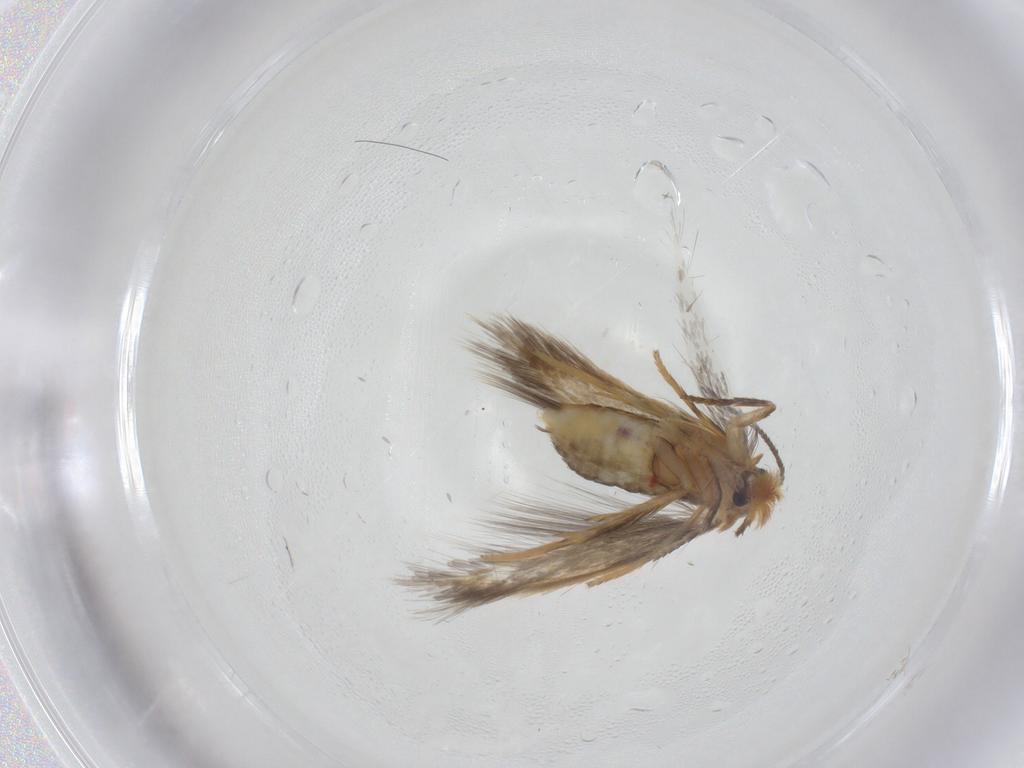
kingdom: Animalia
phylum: Arthropoda
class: Insecta
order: Lepidoptera
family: Nepticulidae
